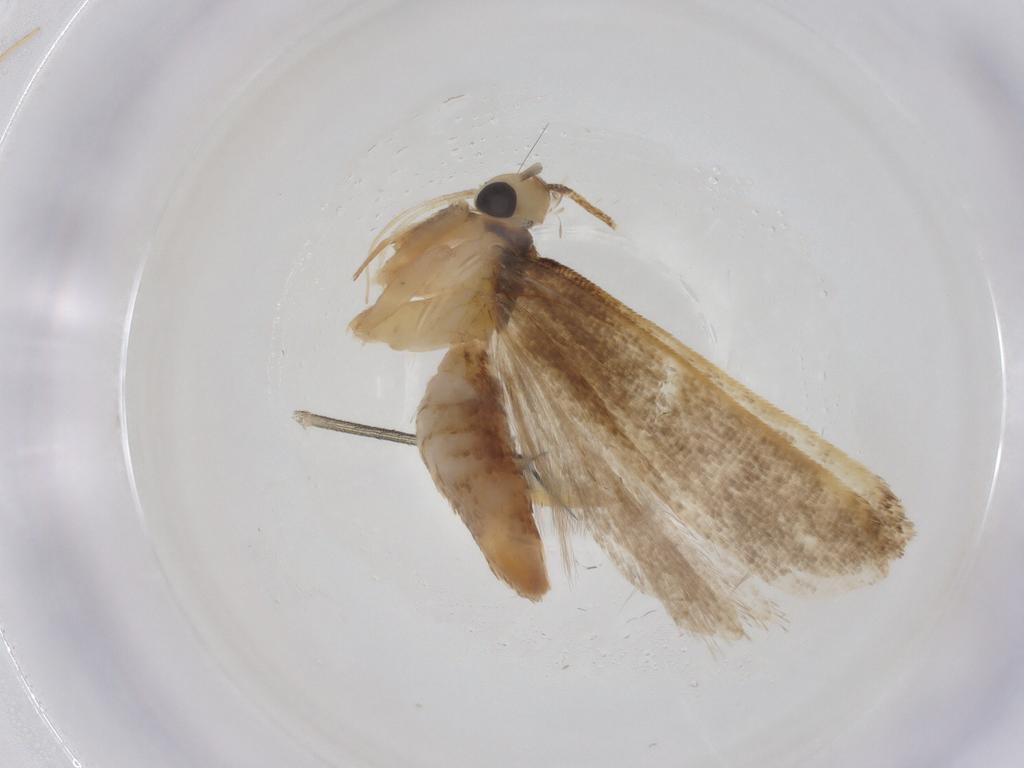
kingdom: Animalia
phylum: Arthropoda
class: Insecta
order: Lepidoptera
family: Gelechiidae
